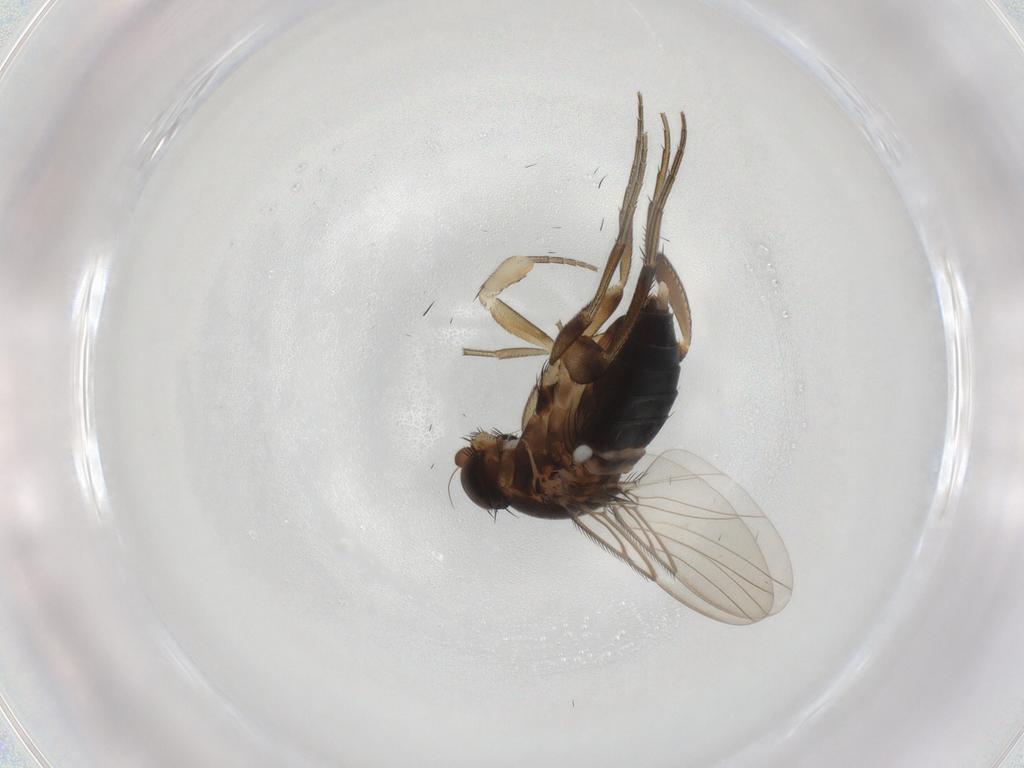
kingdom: Animalia
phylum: Arthropoda
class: Insecta
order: Diptera
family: Phoridae
